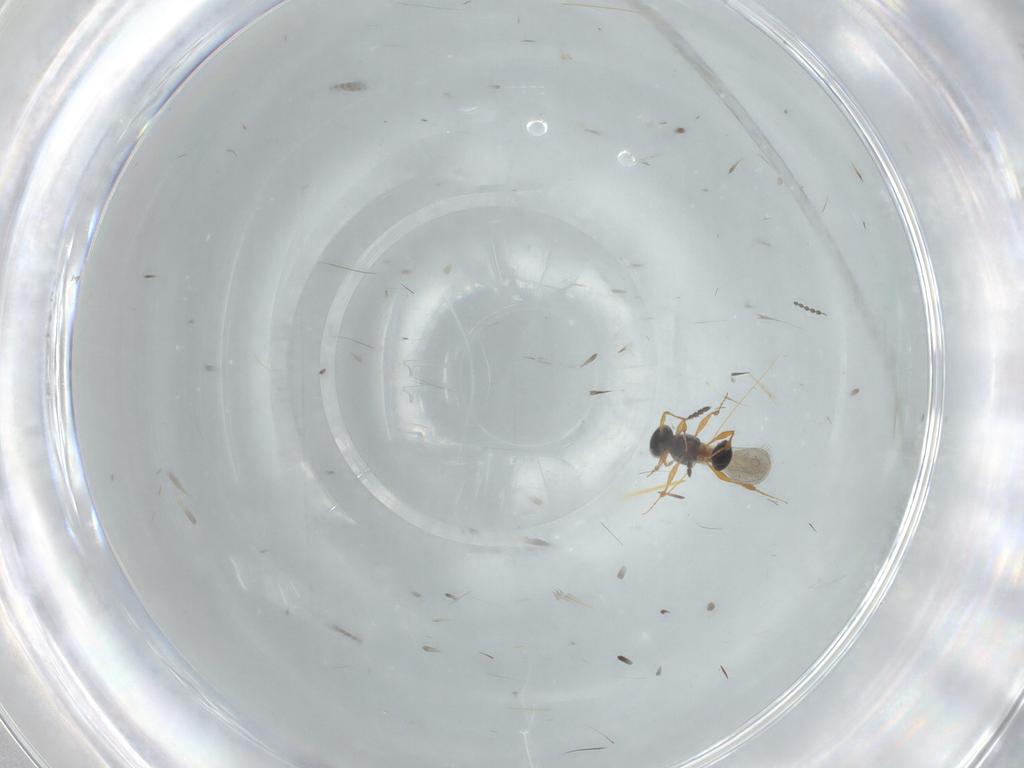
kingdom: Animalia
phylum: Arthropoda
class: Insecta
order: Hymenoptera
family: Platygastridae
